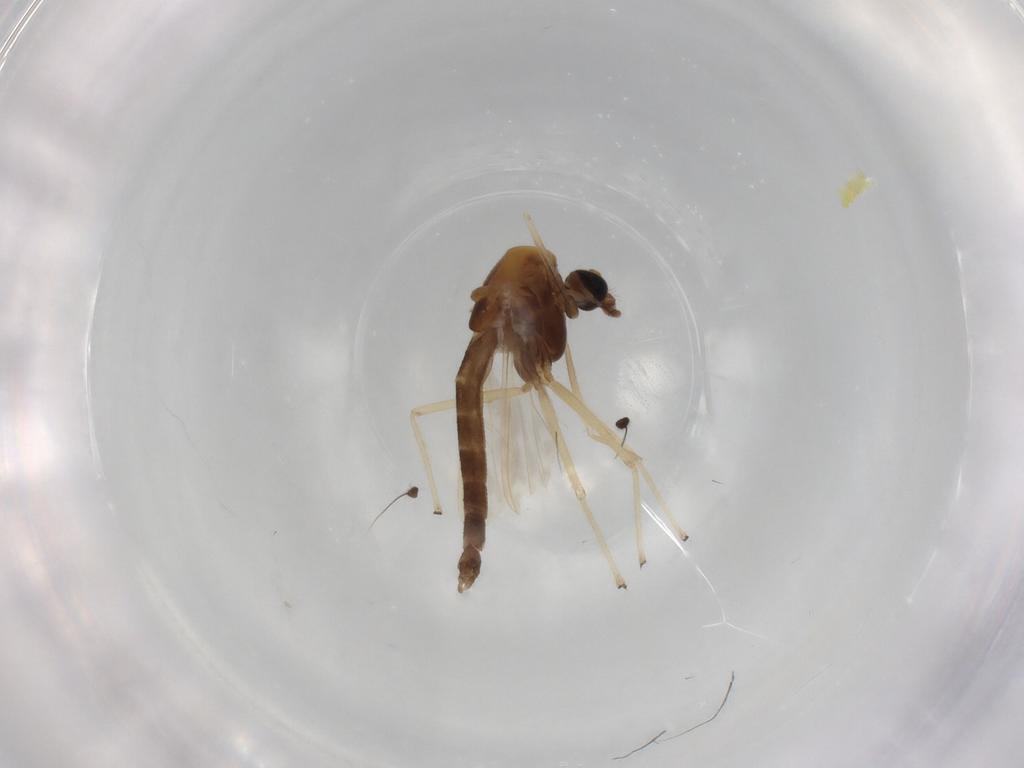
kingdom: Animalia
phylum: Arthropoda
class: Insecta
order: Diptera
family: Chironomidae
